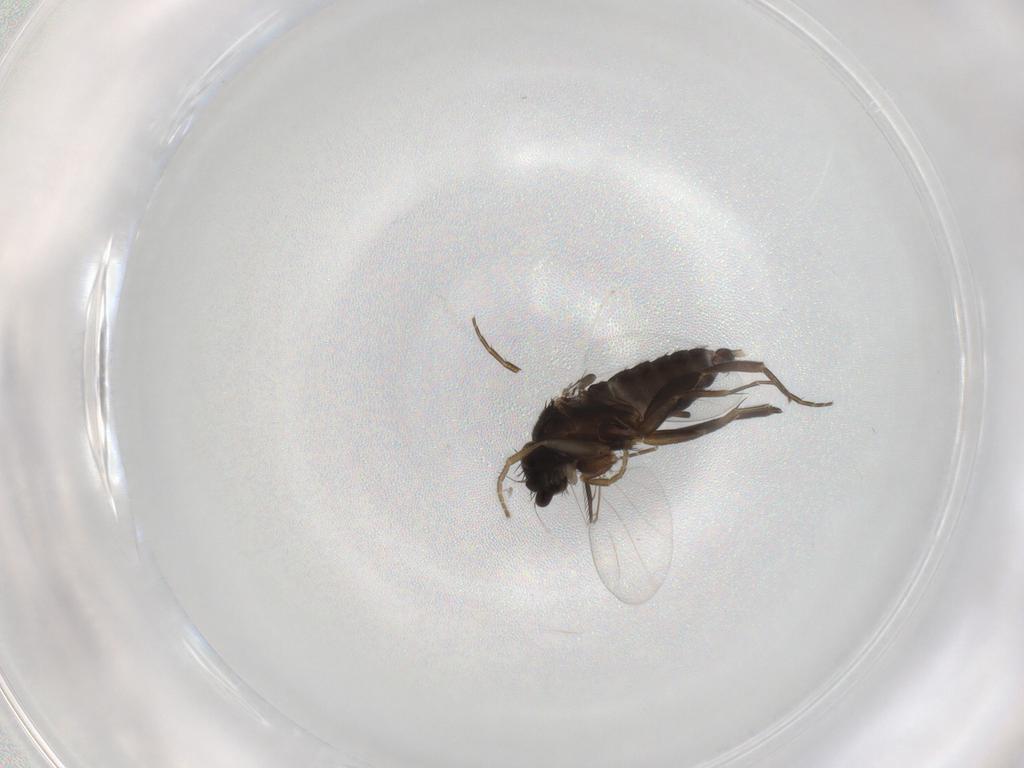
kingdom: Animalia
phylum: Arthropoda
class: Insecta
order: Diptera
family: Phoridae
